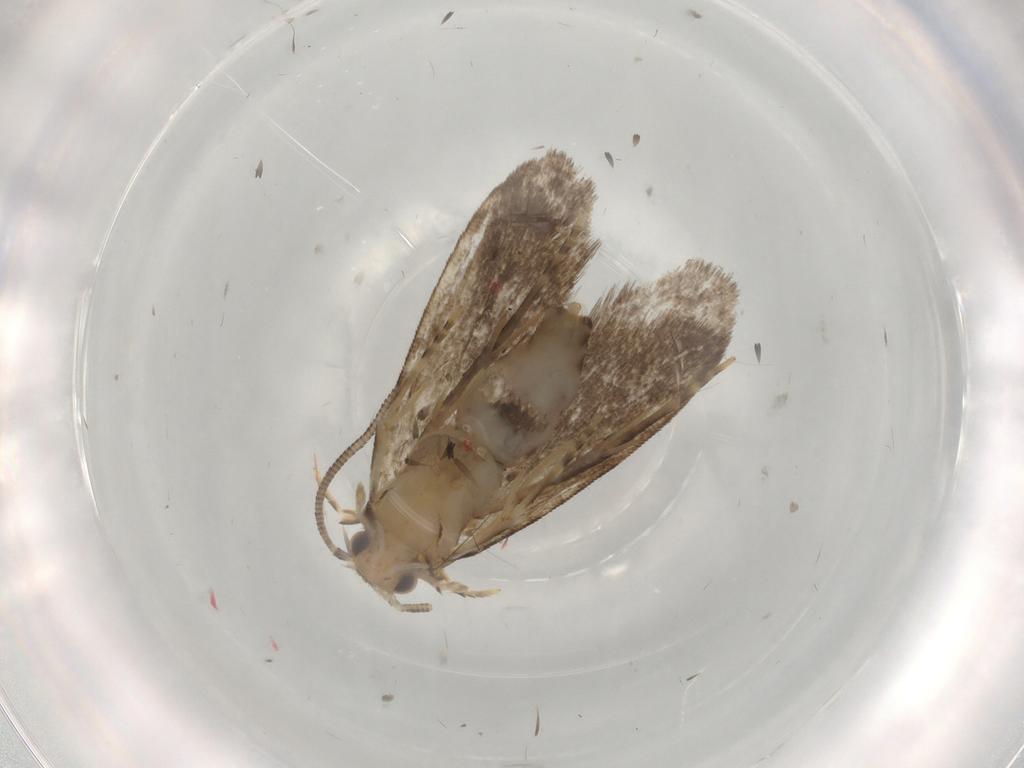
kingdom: Animalia
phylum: Arthropoda
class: Insecta
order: Lepidoptera
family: Dryadaulidae
